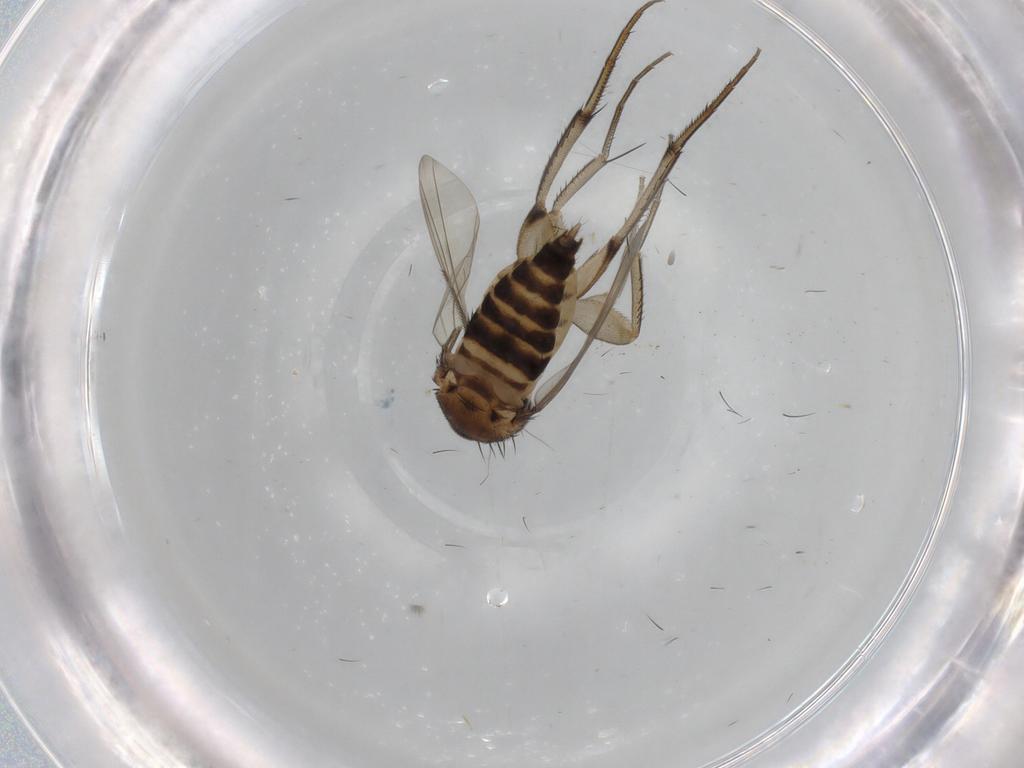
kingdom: Animalia
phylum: Arthropoda
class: Insecta
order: Diptera
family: Phoridae
